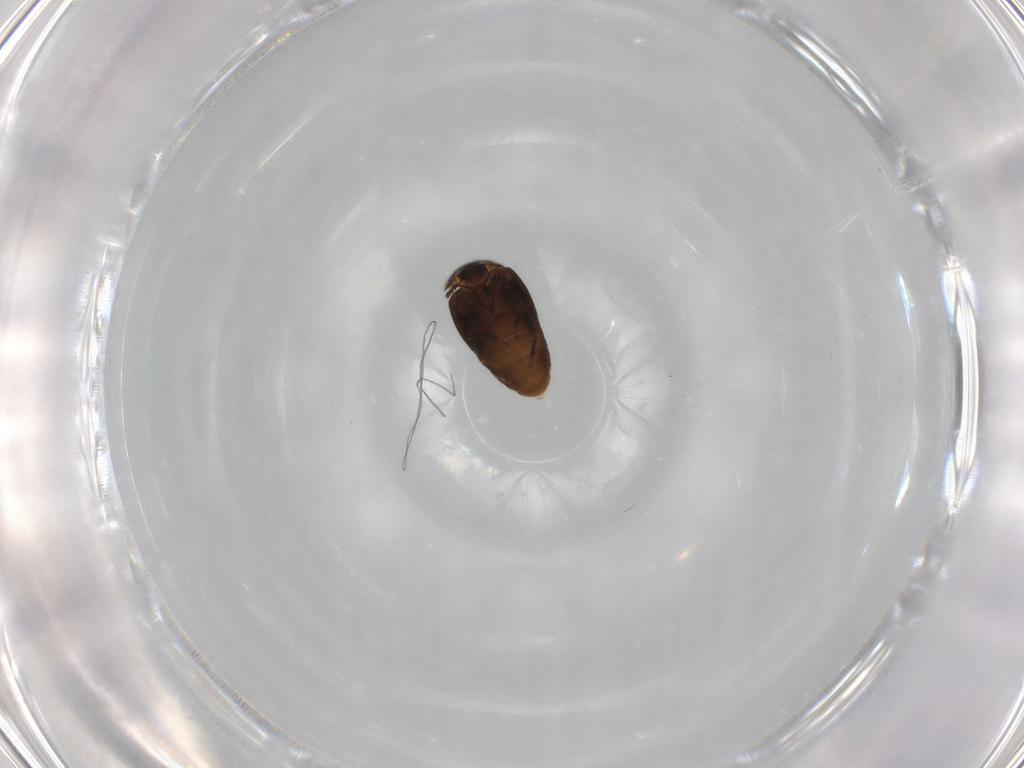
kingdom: Animalia
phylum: Arthropoda
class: Insecta
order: Coleoptera
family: Corylophidae
